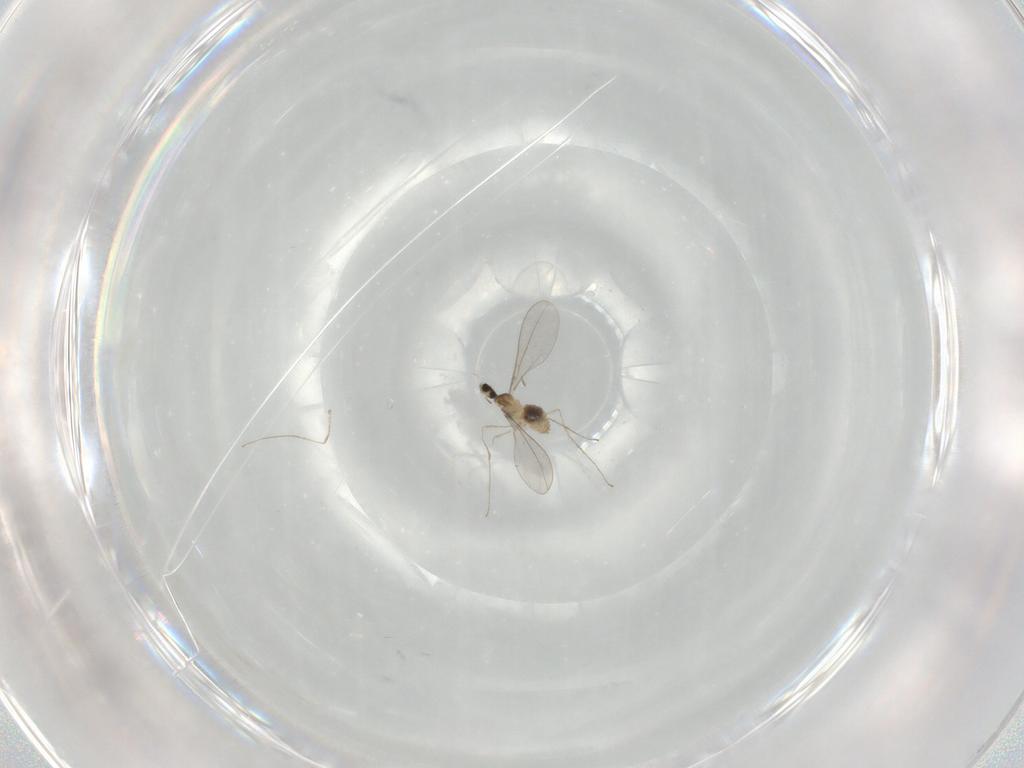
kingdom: Animalia
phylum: Arthropoda
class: Insecta
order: Diptera
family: Cecidomyiidae
